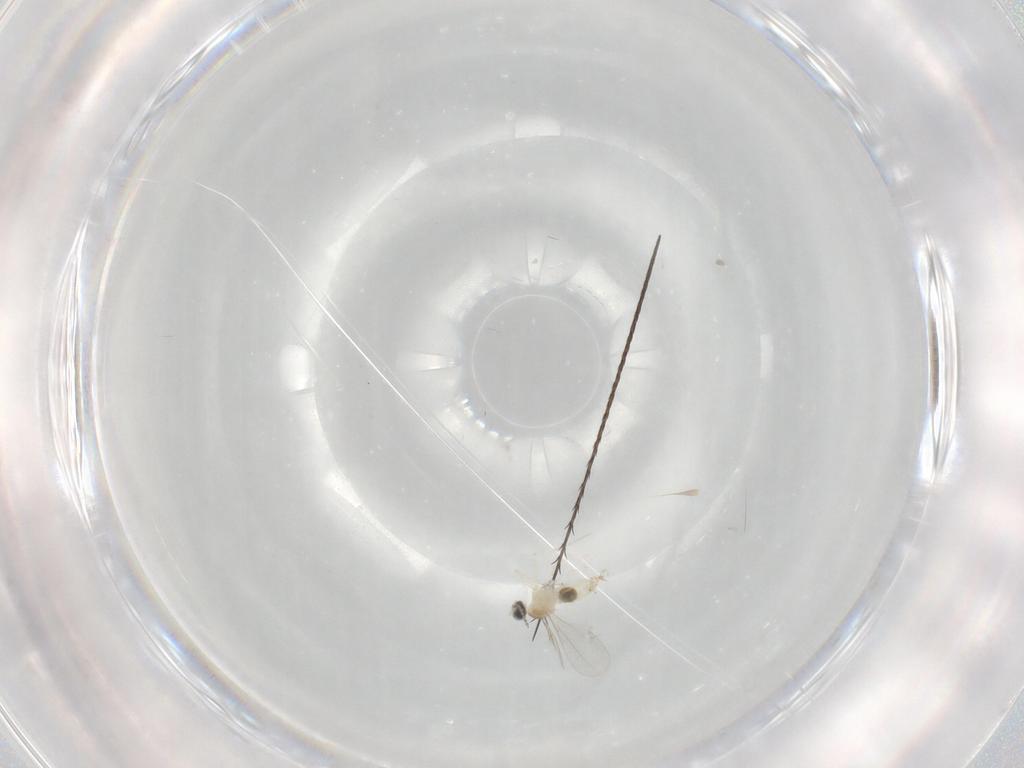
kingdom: Animalia
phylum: Arthropoda
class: Insecta
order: Diptera
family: Cecidomyiidae
